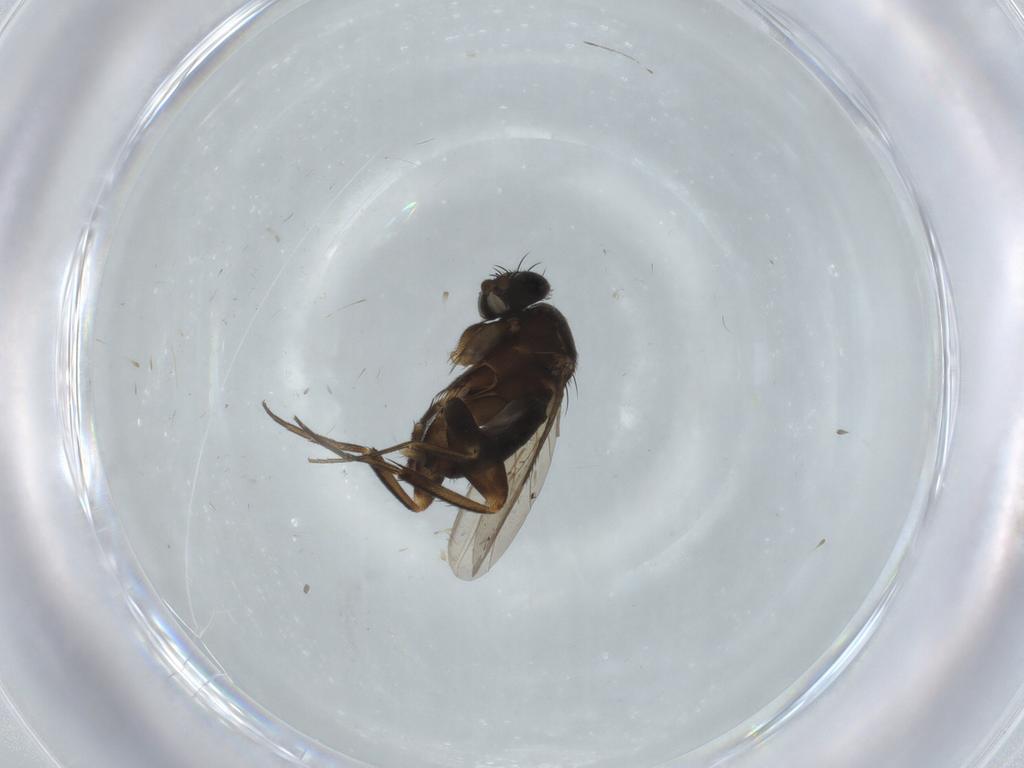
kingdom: Animalia
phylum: Arthropoda
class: Insecta
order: Diptera
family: Phoridae
